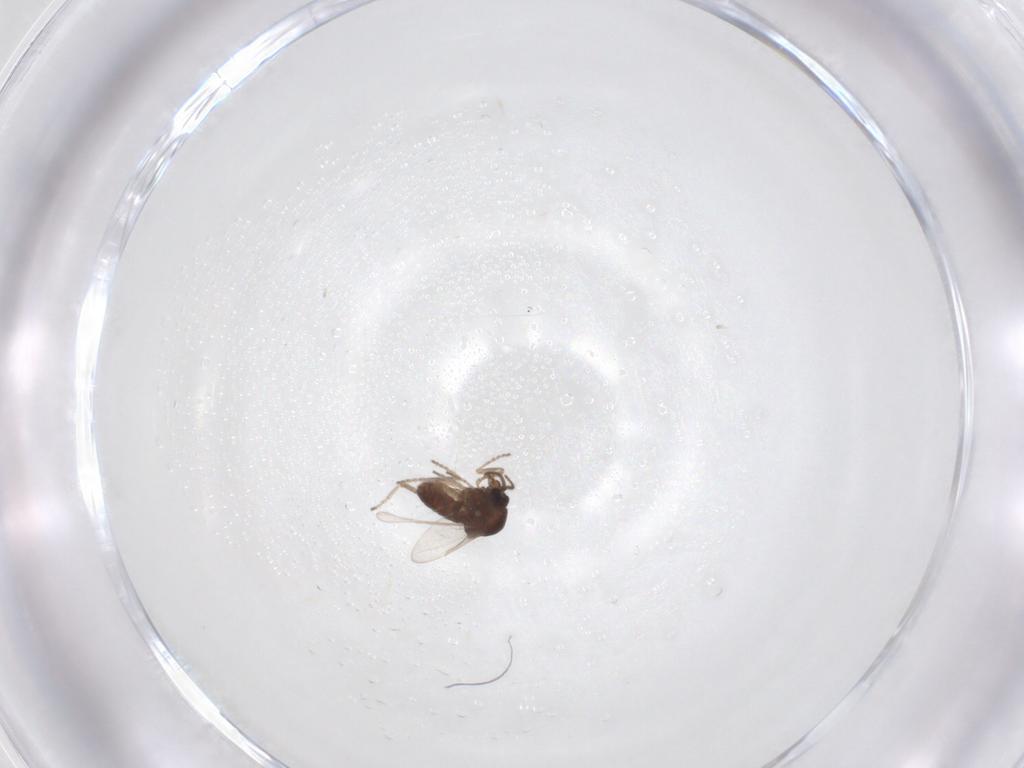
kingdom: Animalia
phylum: Arthropoda
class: Insecta
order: Diptera
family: Ceratopogonidae
